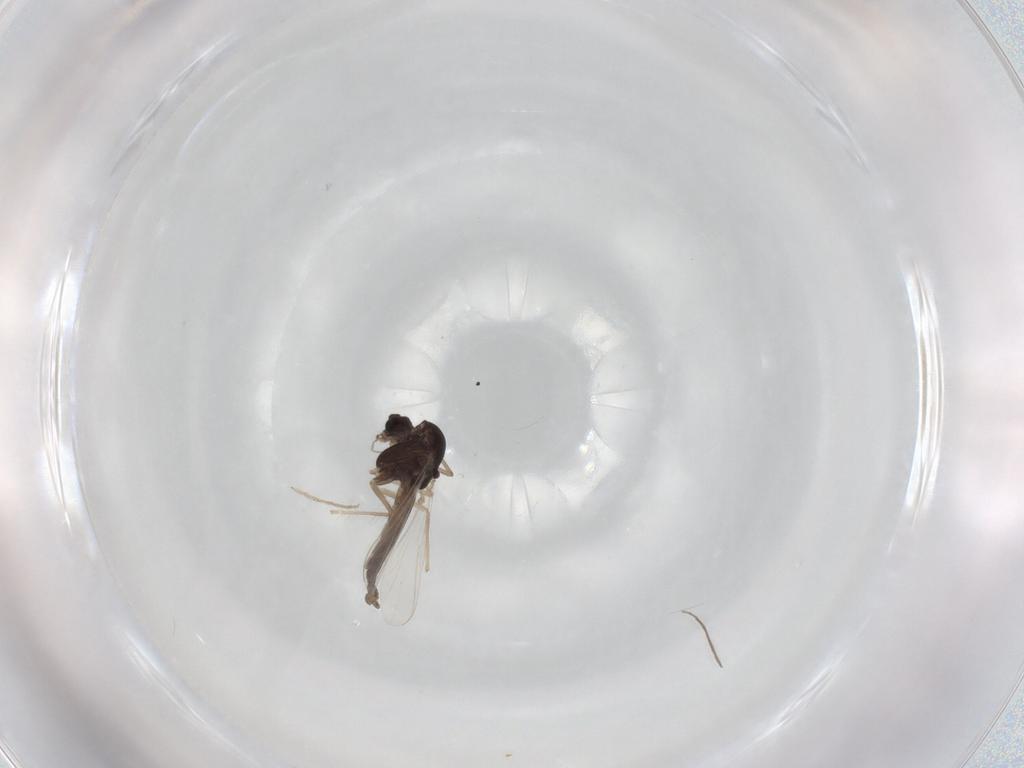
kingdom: Animalia
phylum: Arthropoda
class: Insecta
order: Diptera
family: Chironomidae
